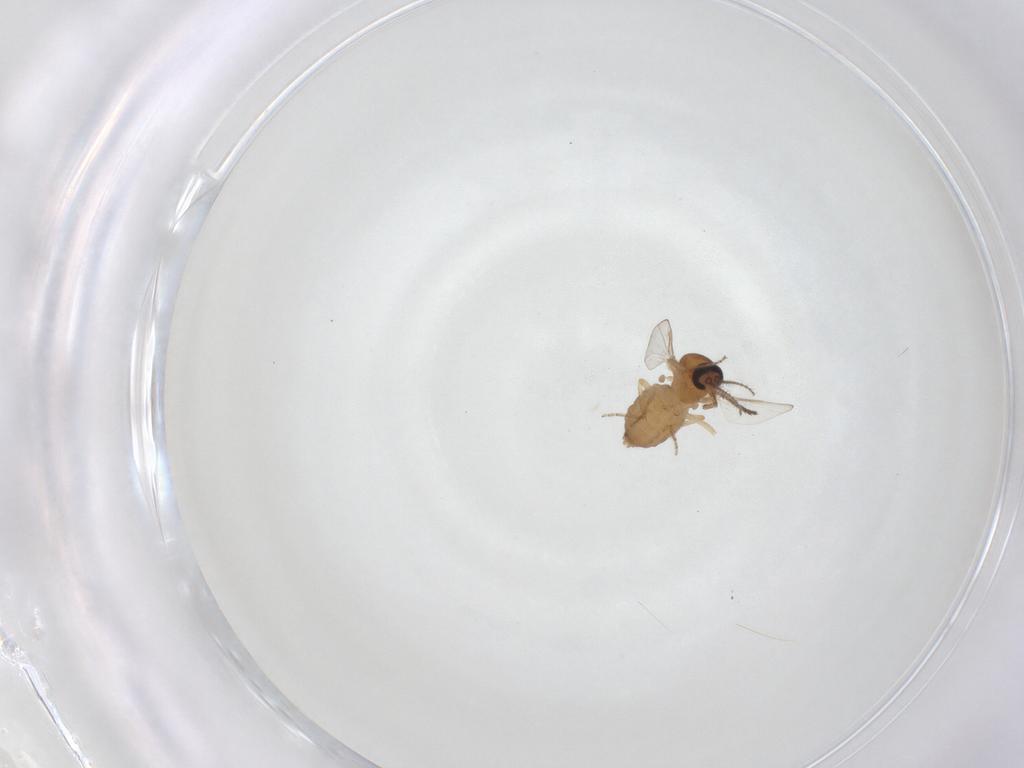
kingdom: Animalia
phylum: Arthropoda
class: Insecta
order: Diptera
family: Ceratopogonidae
